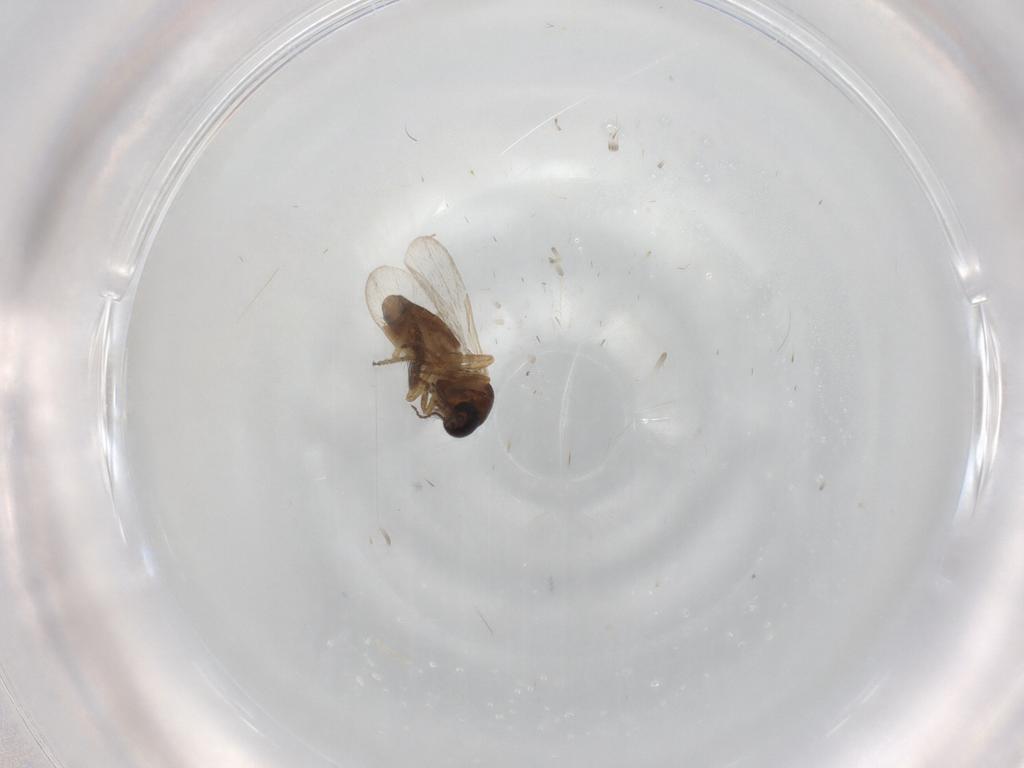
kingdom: Animalia
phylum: Arthropoda
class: Insecta
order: Diptera
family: Ceratopogonidae
